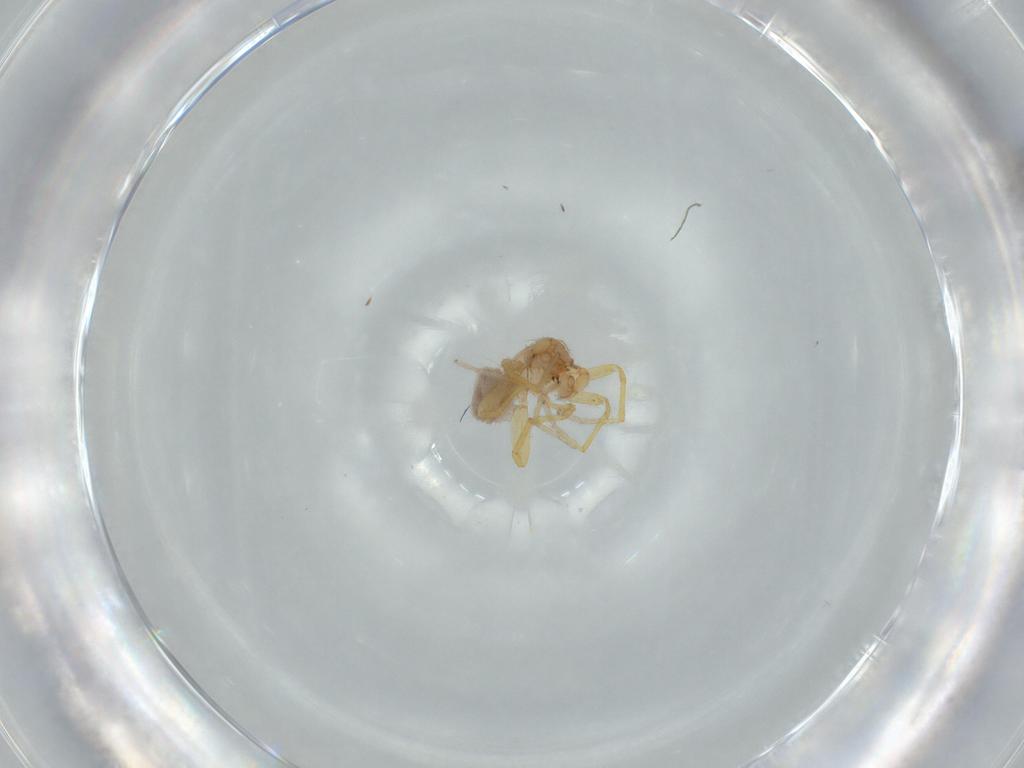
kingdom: Animalia
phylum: Arthropoda
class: Arachnida
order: Araneae
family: Oonopidae
